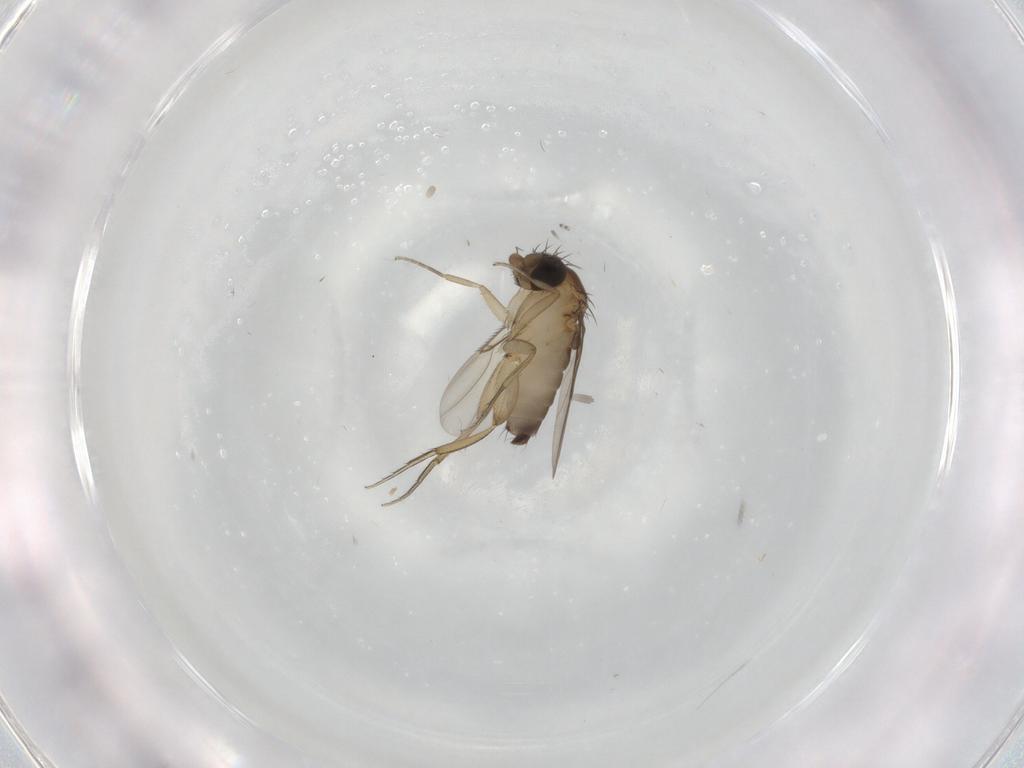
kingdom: Animalia
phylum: Arthropoda
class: Insecta
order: Diptera
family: Phoridae
